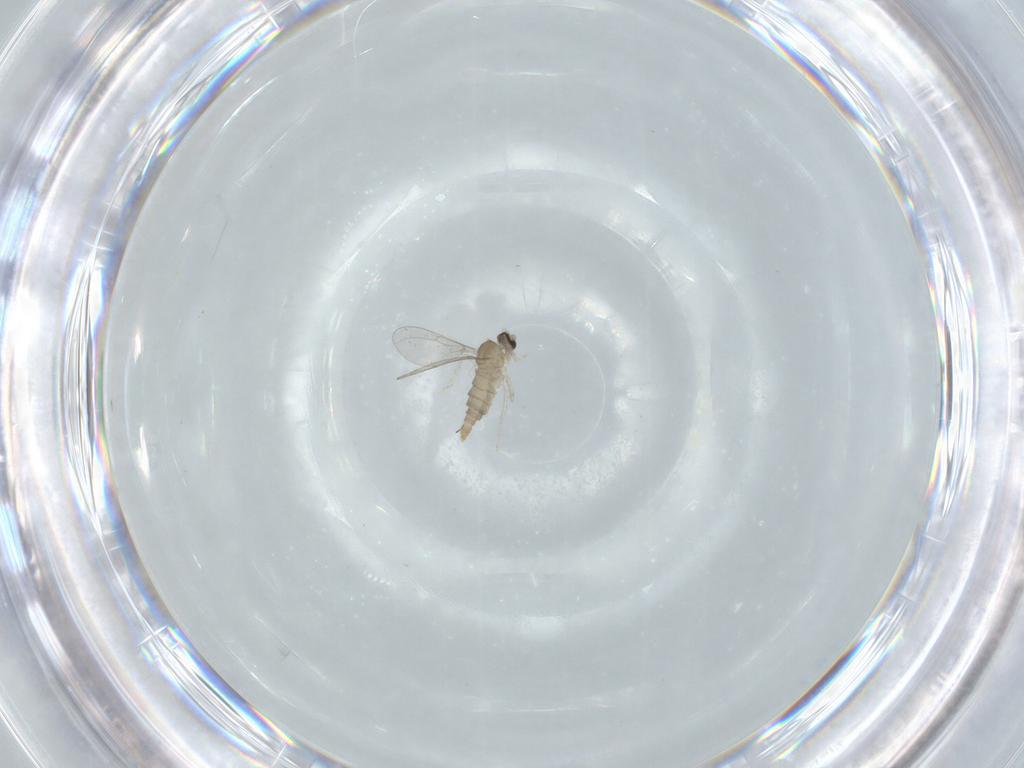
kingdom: Animalia
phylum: Arthropoda
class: Insecta
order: Diptera
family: Cecidomyiidae
